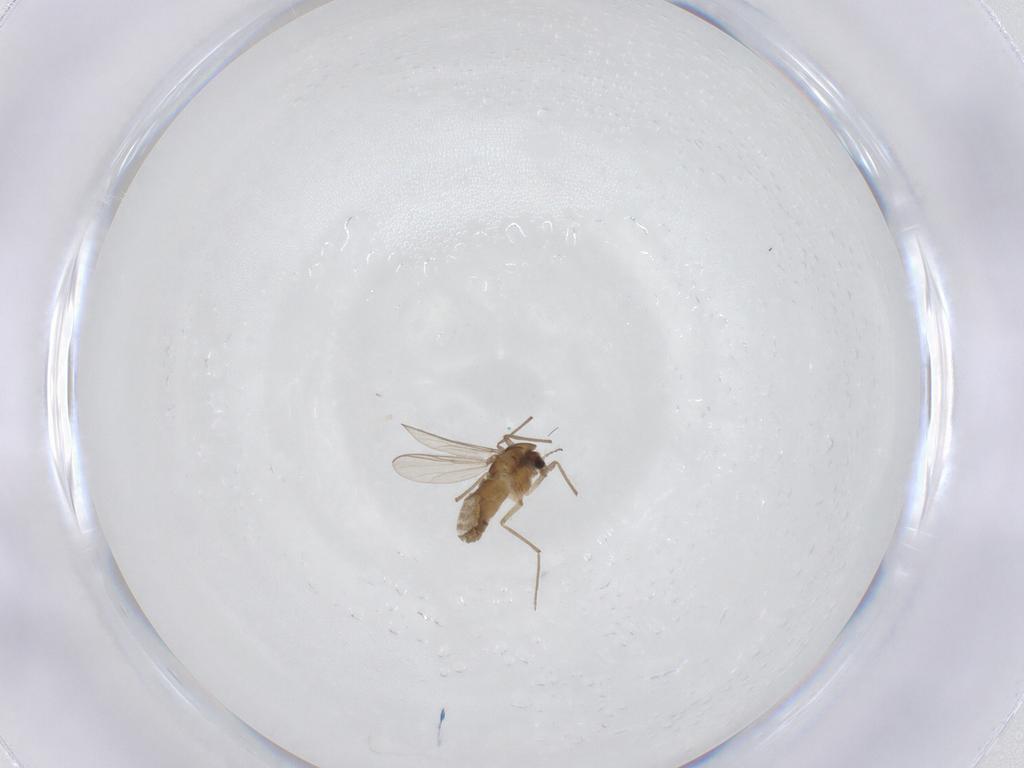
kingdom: Animalia
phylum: Arthropoda
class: Insecta
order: Diptera
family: Chironomidae
